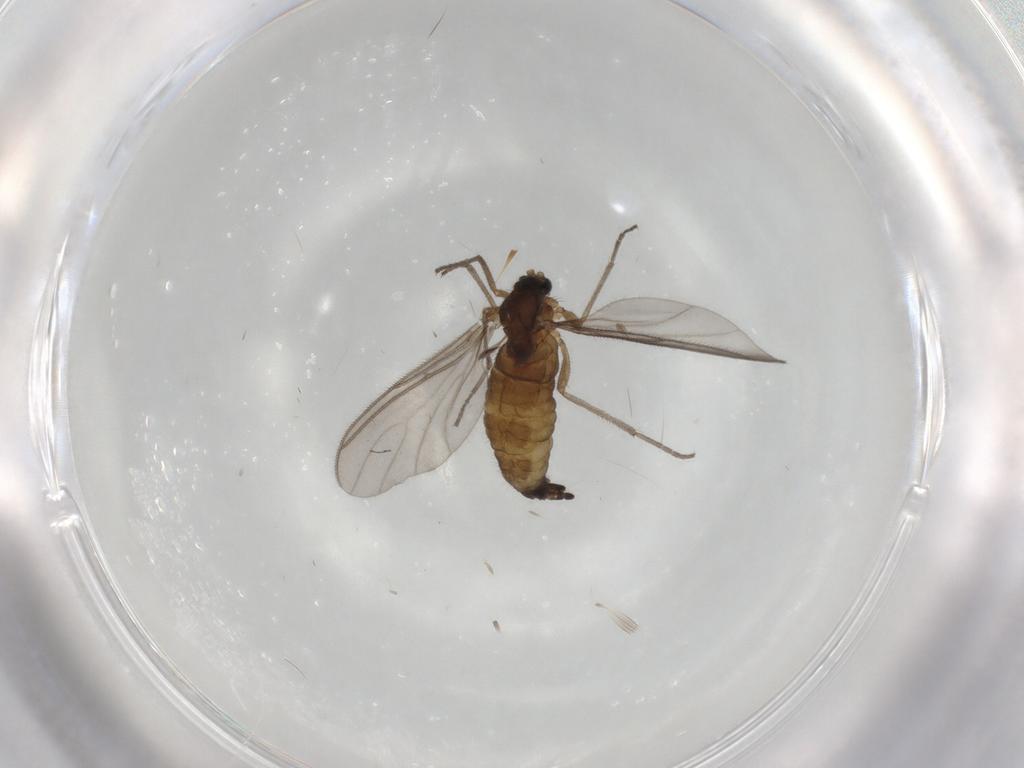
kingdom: Animalia
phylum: Arthropoda
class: Insecta
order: Diptera
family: Sciaridae
